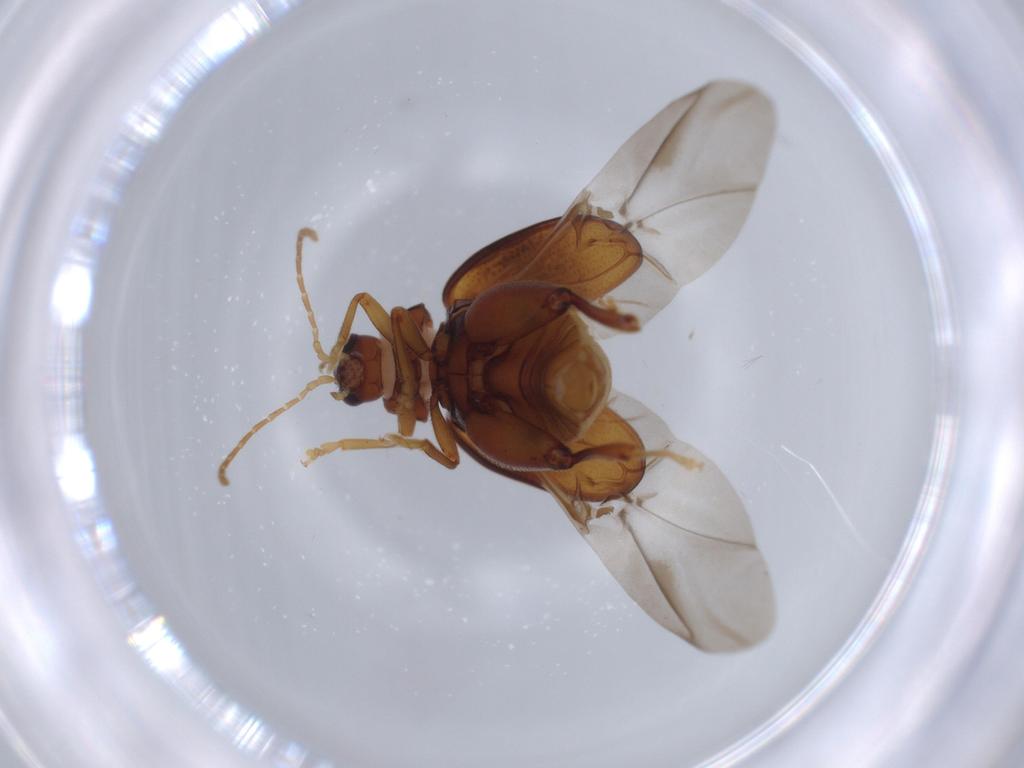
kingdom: Animalia
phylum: Arthropoda
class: Insecta
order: Coleoptera
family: Chrysomelidae
